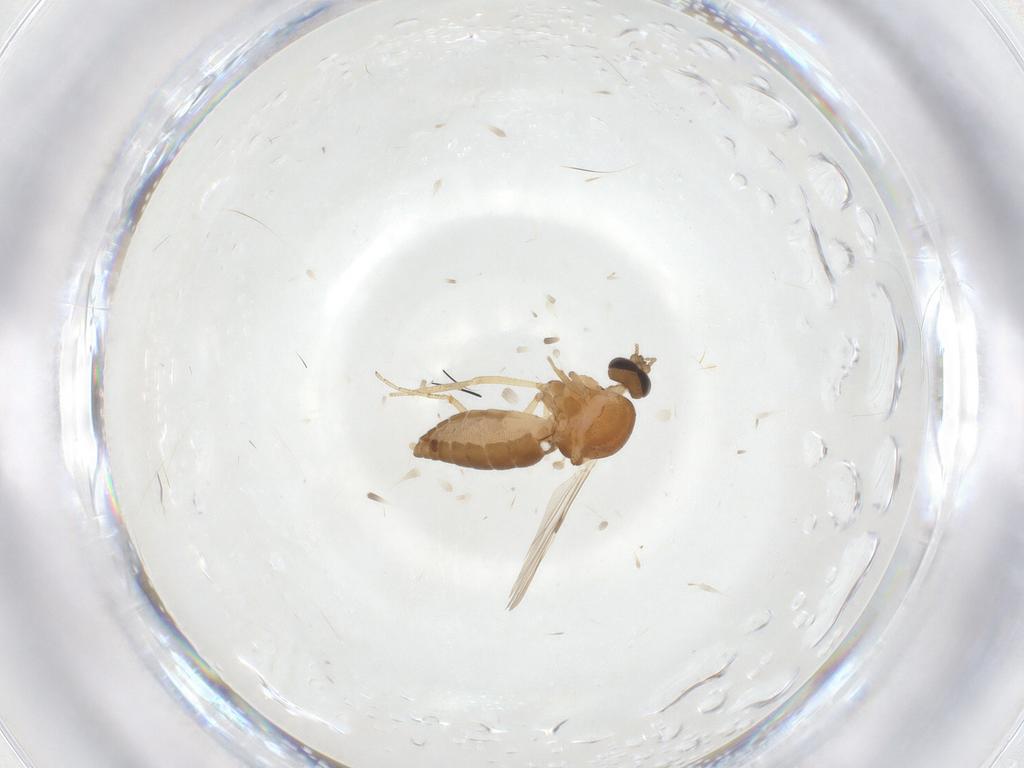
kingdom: Animalia
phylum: Arthropoda
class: Insecta
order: Diptera
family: Ceratopogonidae
